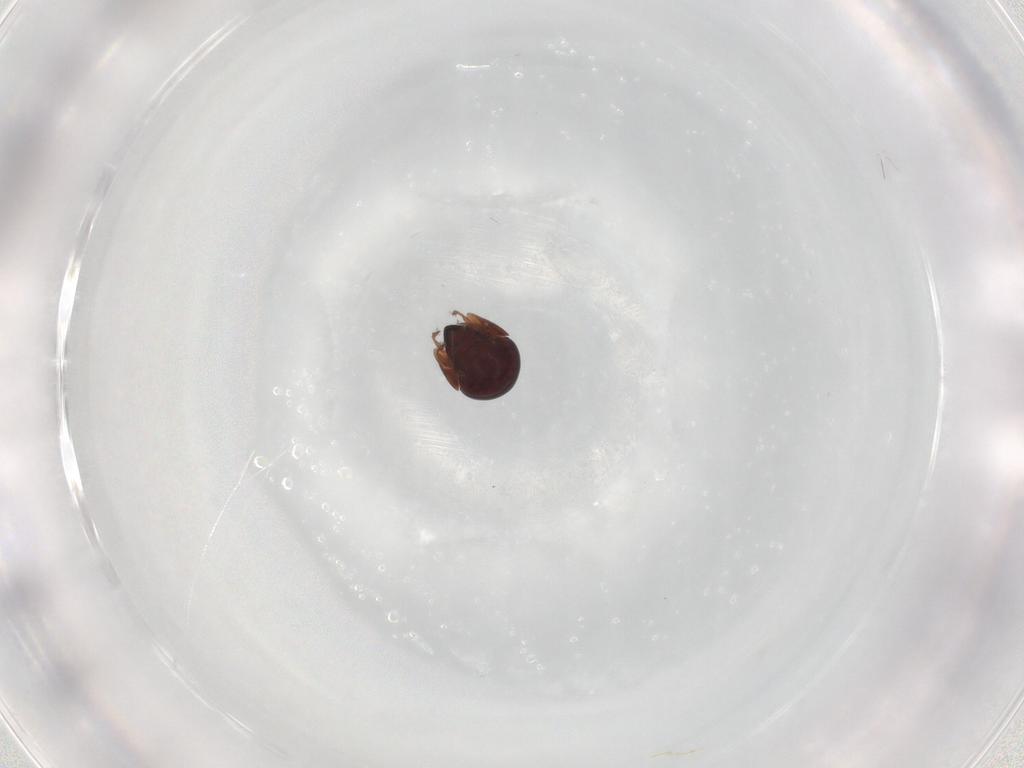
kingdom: Animalia
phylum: Arthropoda
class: Arachnida
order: Sarcoptiformes
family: Galumnidae
